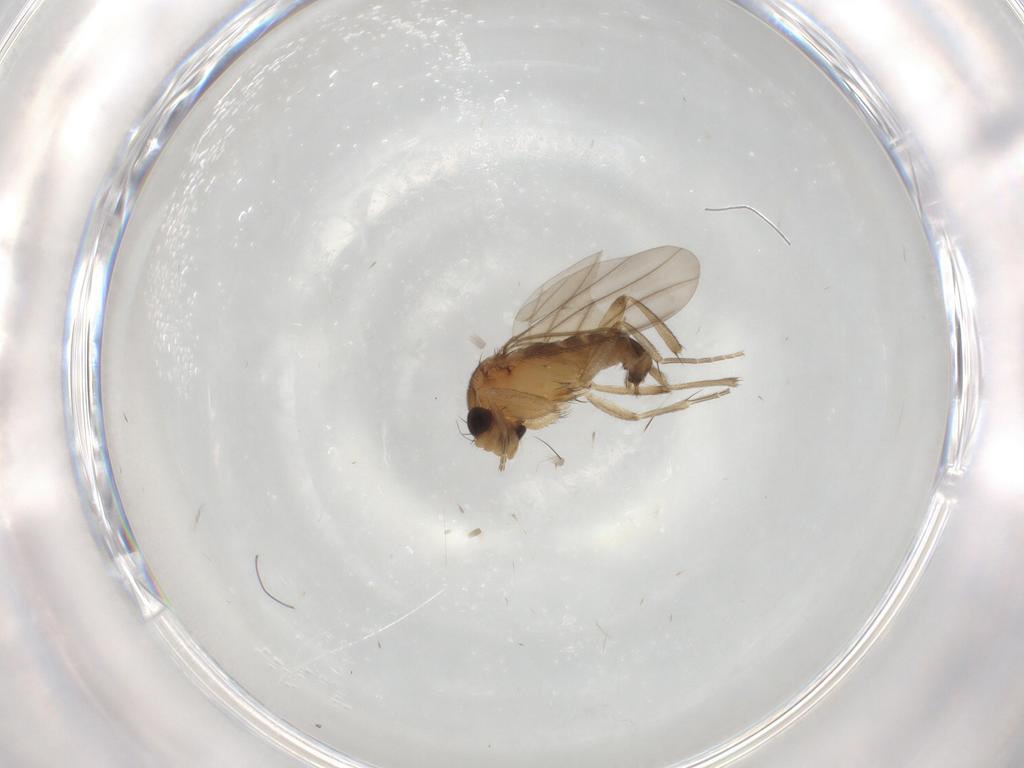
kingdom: Animalia
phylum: Arthropoda
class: Insecta
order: Diptera
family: Phoridae
